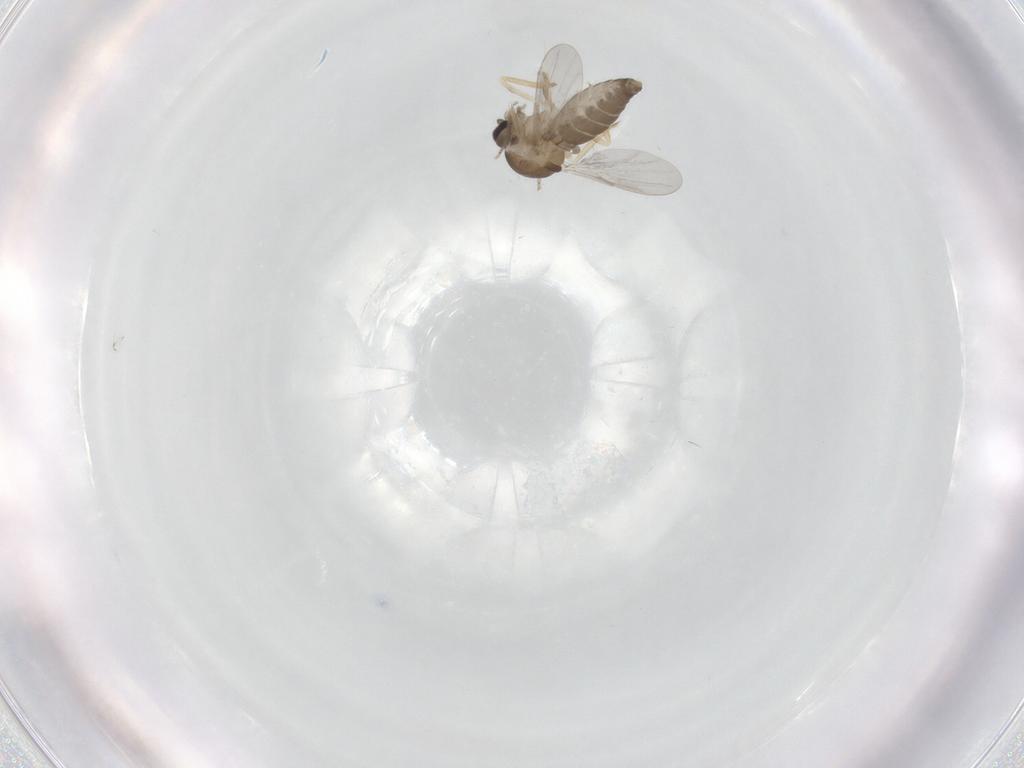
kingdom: Animalia
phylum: Arthropoda
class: Insecta
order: Diptera
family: Ceratopogonidae
